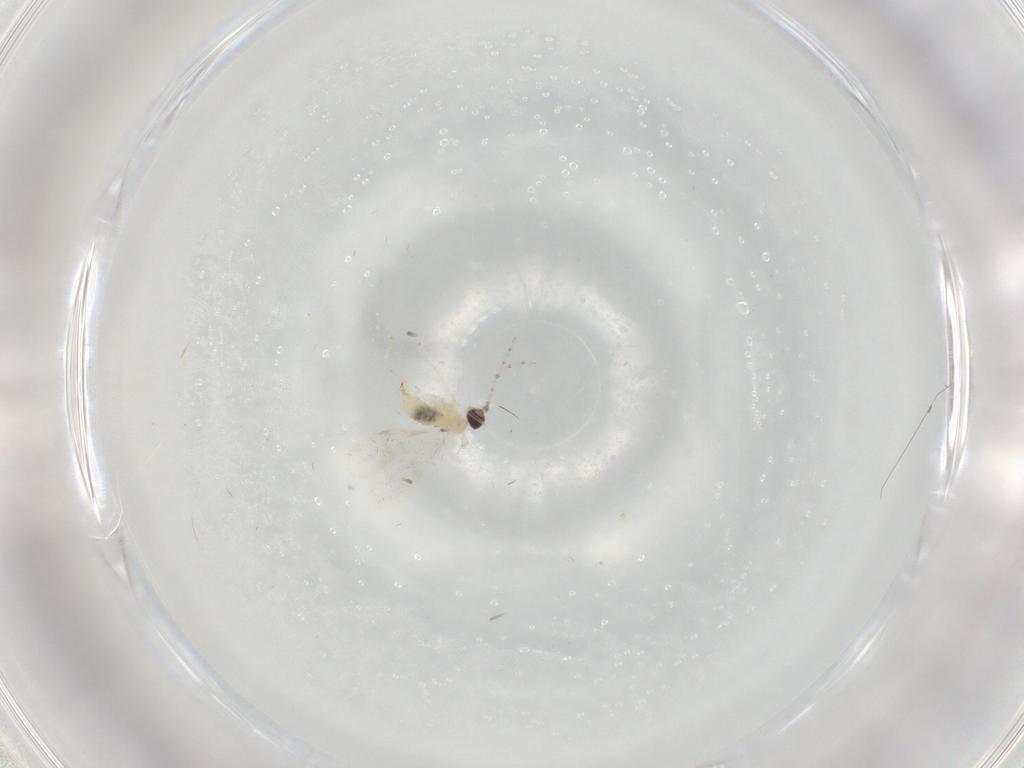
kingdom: Animalia
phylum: Arthropoda
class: Insecta
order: Diptera
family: Cecidomyiidae
